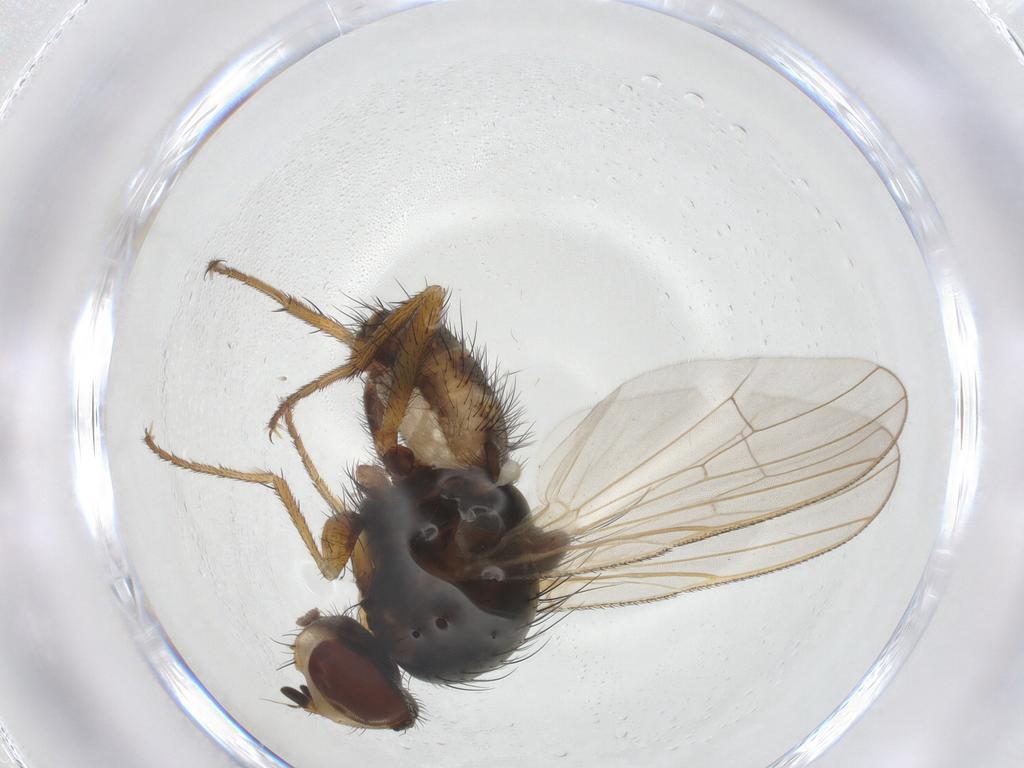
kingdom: Animalia
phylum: Arthropoda
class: Insecta
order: Diptera
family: Anthomyiidae
